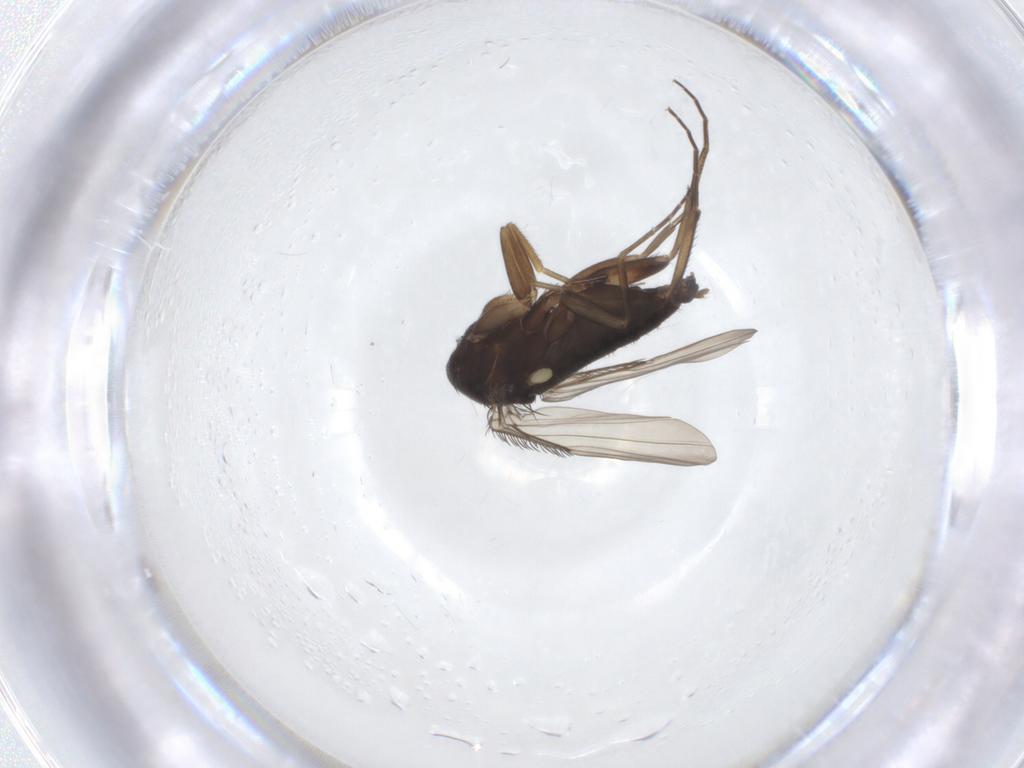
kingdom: Animalia
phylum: Arthropoda
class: Insecta
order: Diptera
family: Phoridae
